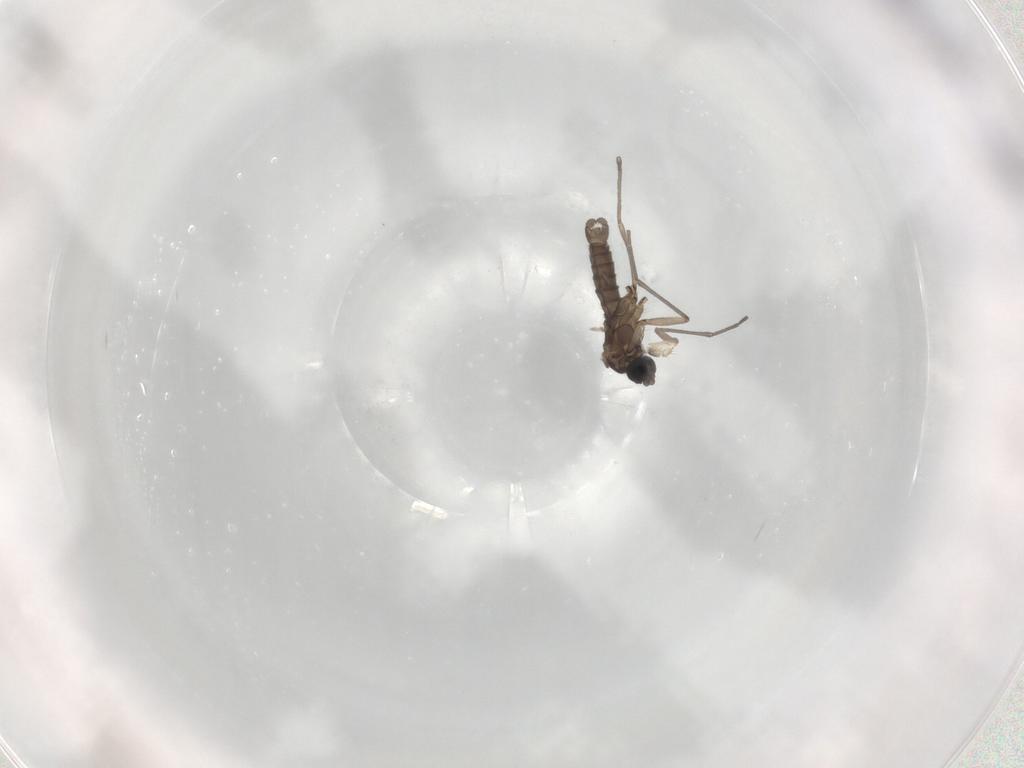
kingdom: Animalia
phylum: Arthropoda
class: Insecta
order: Diptera
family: Sciaridae
